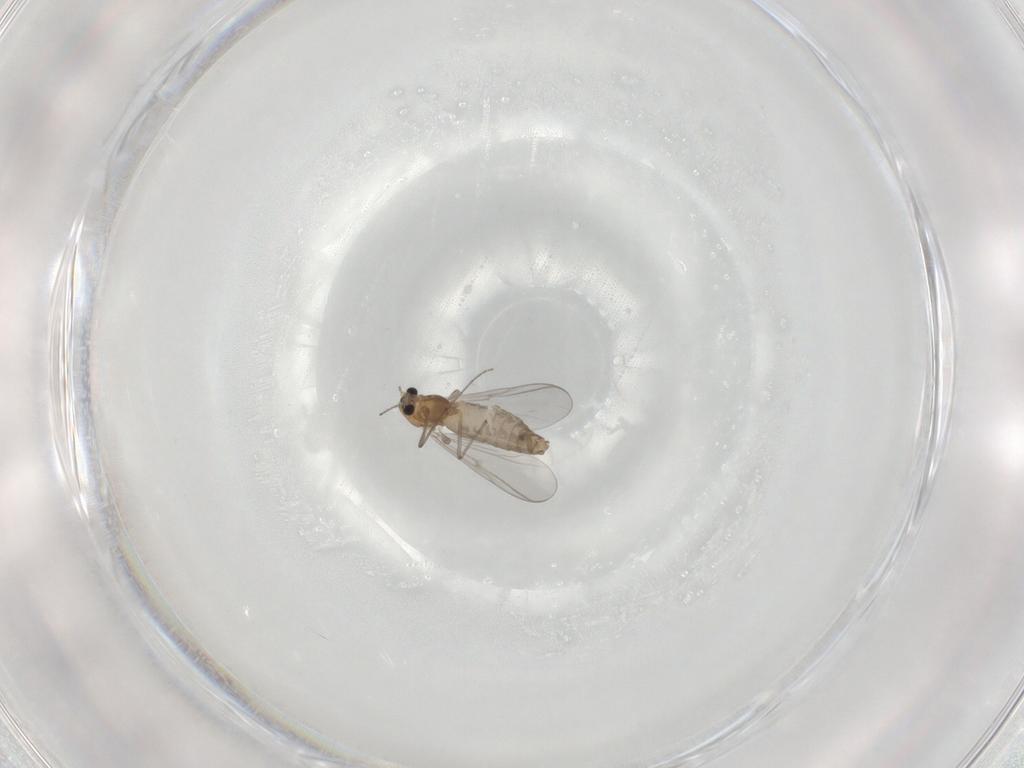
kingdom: Animalia
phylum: Arthropoda
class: Insecta
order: Diptera
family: Chironomidae
